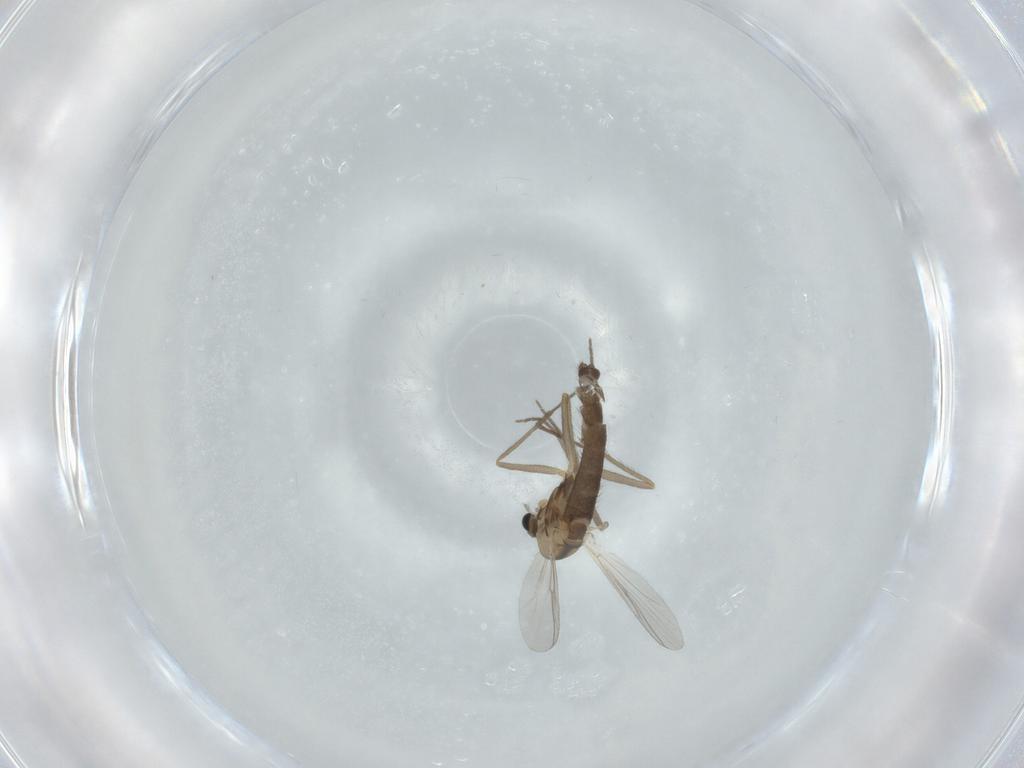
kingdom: Animalia
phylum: Arthropoda
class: Insecta
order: Diptera
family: Chironomidae
